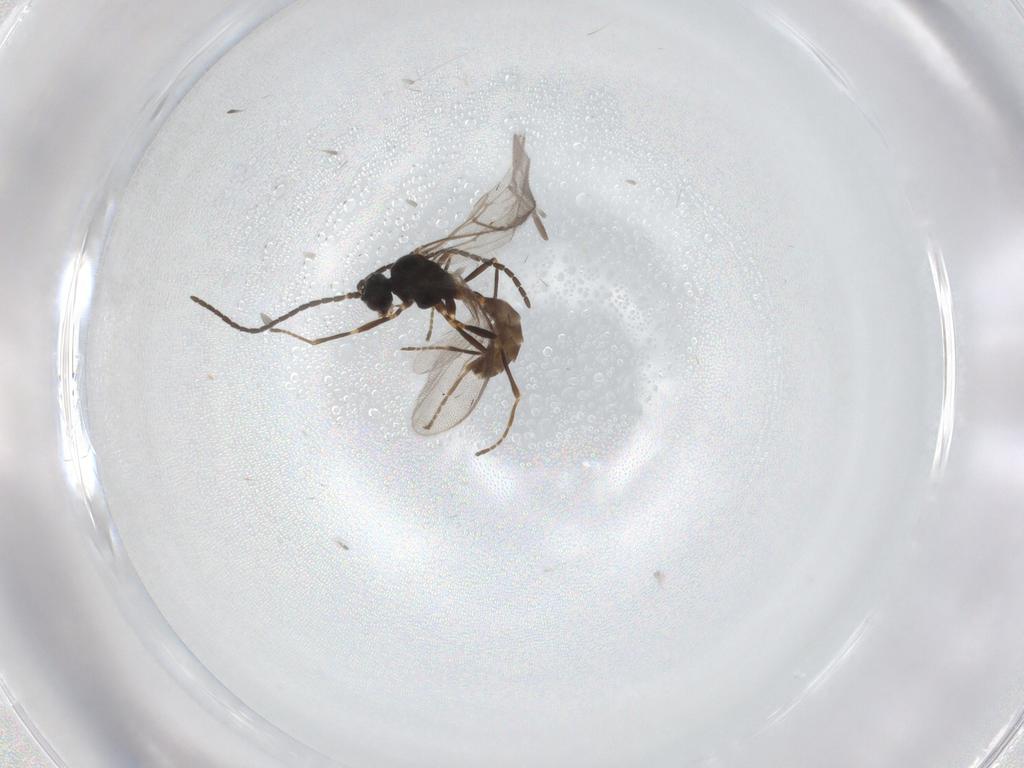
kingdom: Animalia
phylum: Arthropoda
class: Insecta
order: Hymenoptera
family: Braconidae
